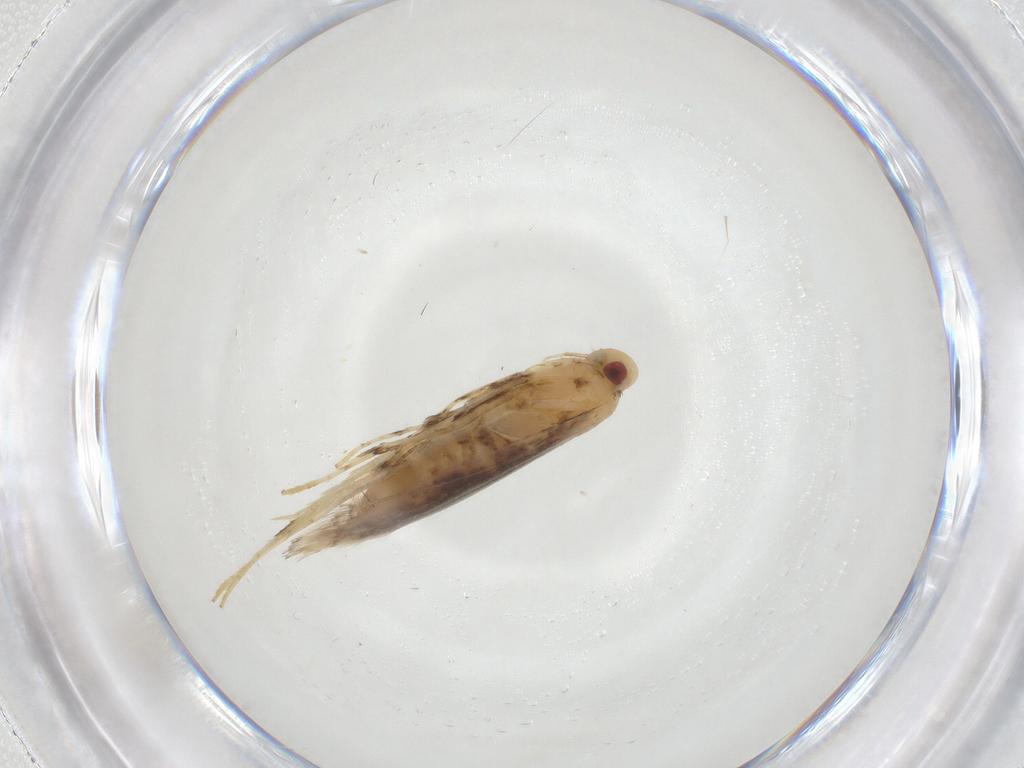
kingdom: Animalia
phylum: Arthropoda
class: Insecta
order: Lepidoptera
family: Gracillariidae
